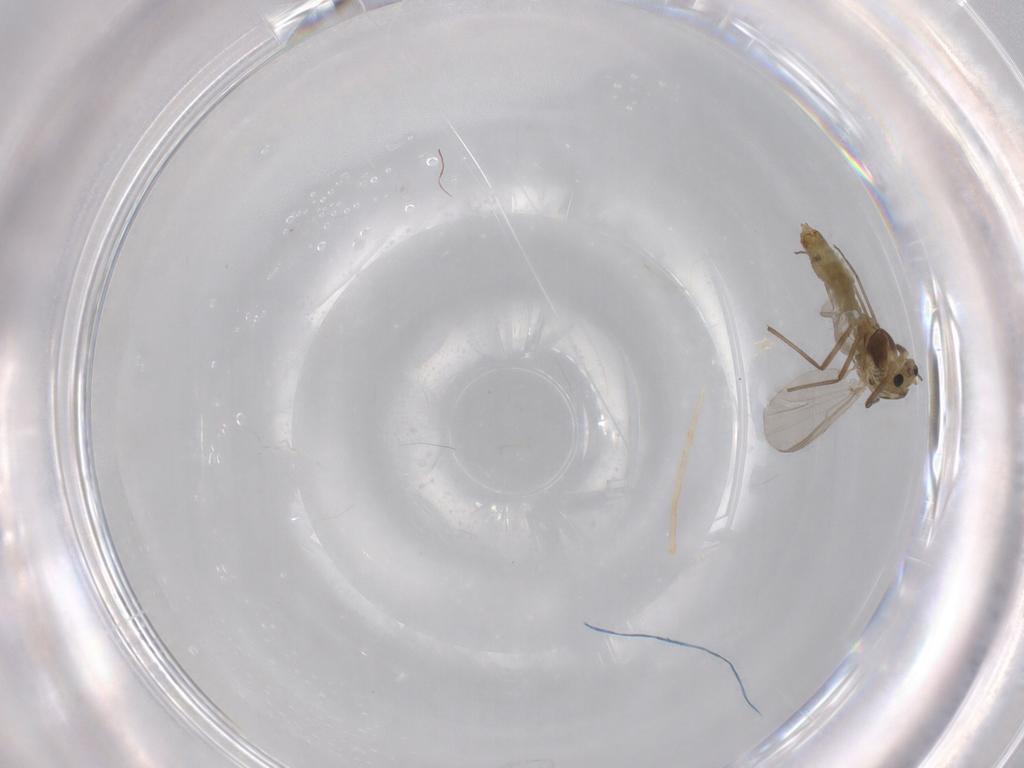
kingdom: Animalia
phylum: Arthropoda
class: Insecta
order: Diptera
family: Chironomidae
